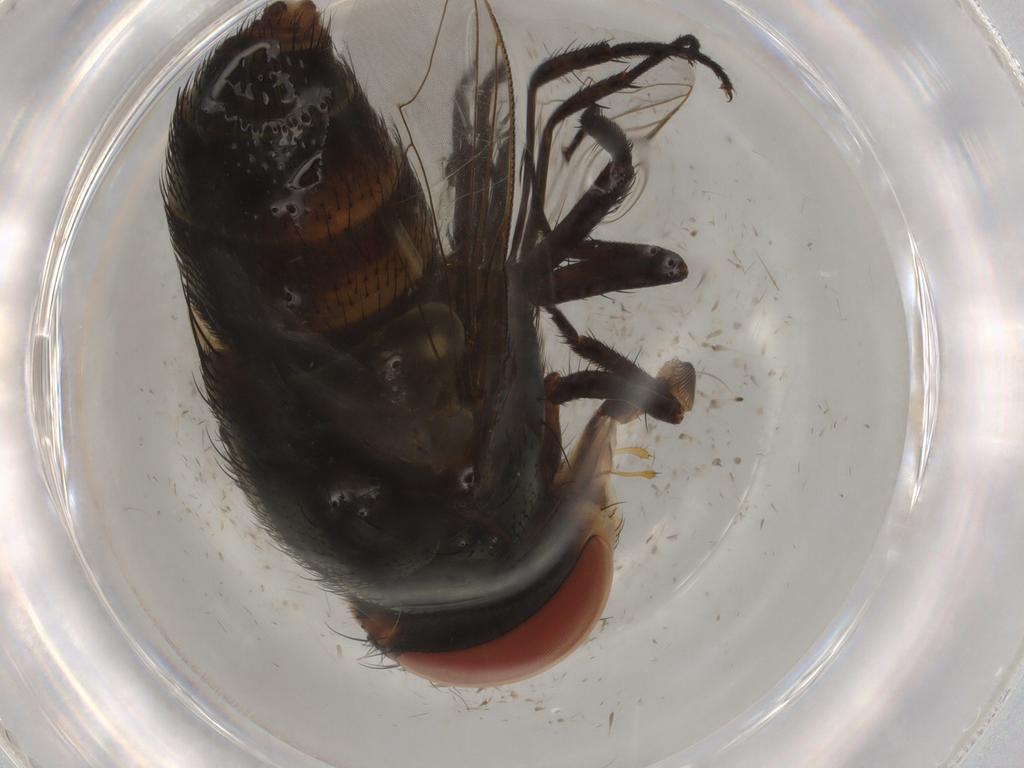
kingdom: Animalia
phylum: Arthropoda
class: Insecta
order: Diptera
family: Sarcophagidae
